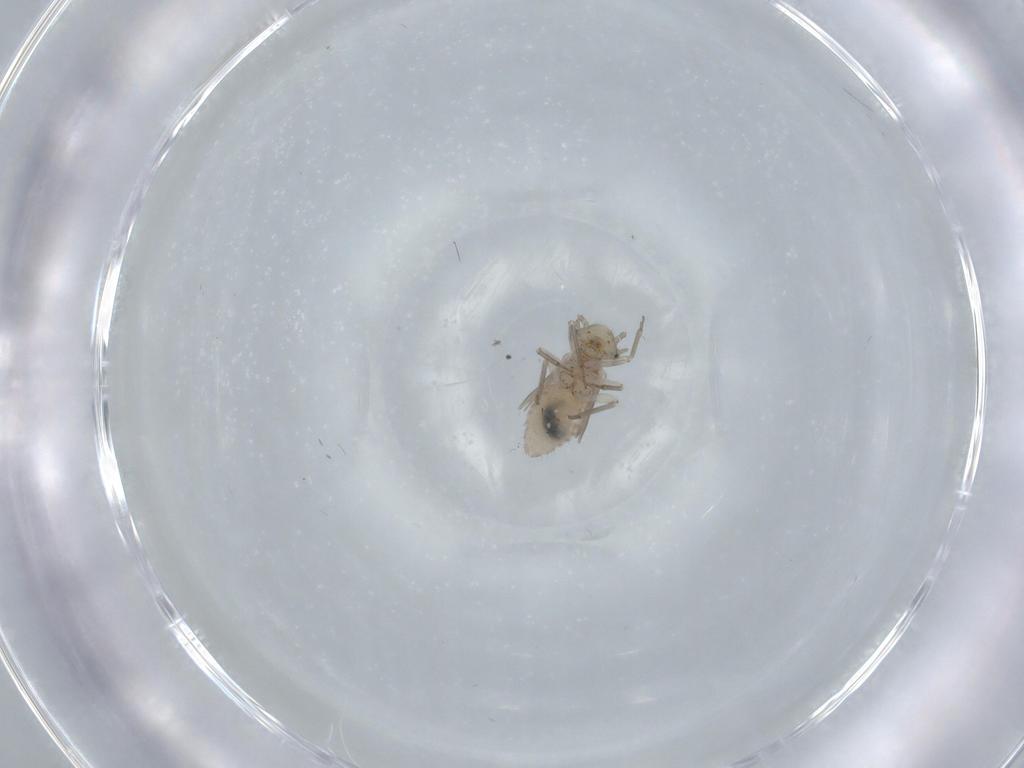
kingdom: Animalia
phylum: Arthropoda
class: Insecta
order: Psocodea
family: Lachesillidae
